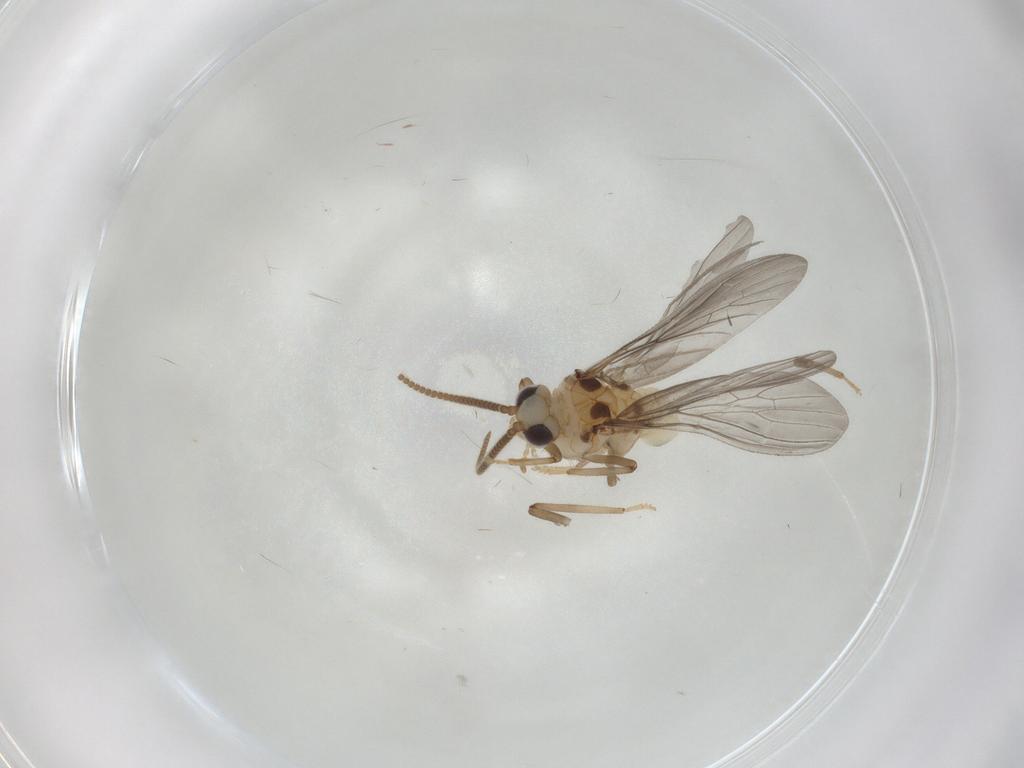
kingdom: Animalia
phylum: Arthropoda
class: Insecta
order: Neuroptera
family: Coniopterygidae
